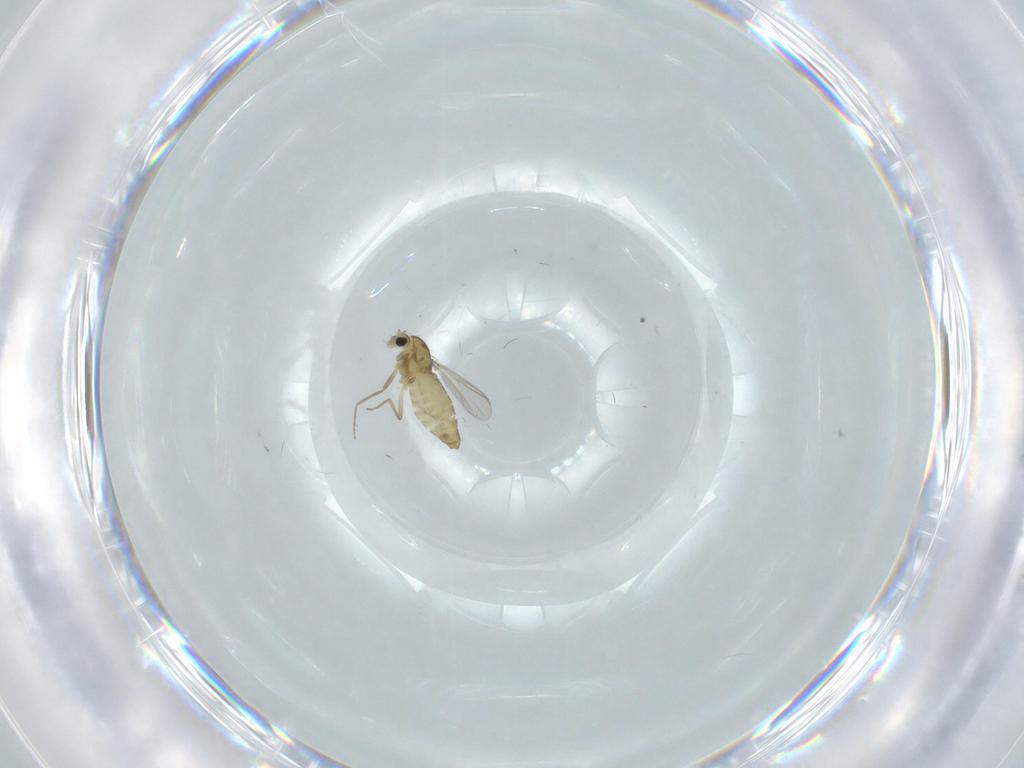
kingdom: Animalia
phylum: Arthropoda
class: Insecta
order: Diptera
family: Chironomidae
